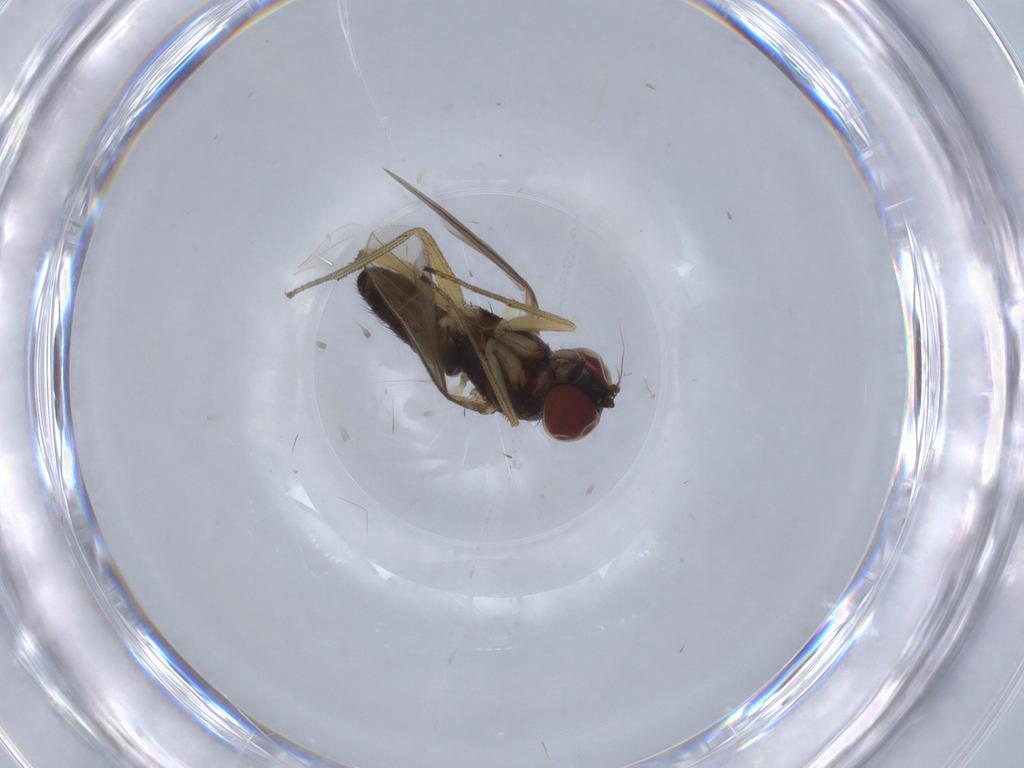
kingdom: Animalia
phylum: Arthropoda
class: Insecta
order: Diptera
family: Dolichopodidae
